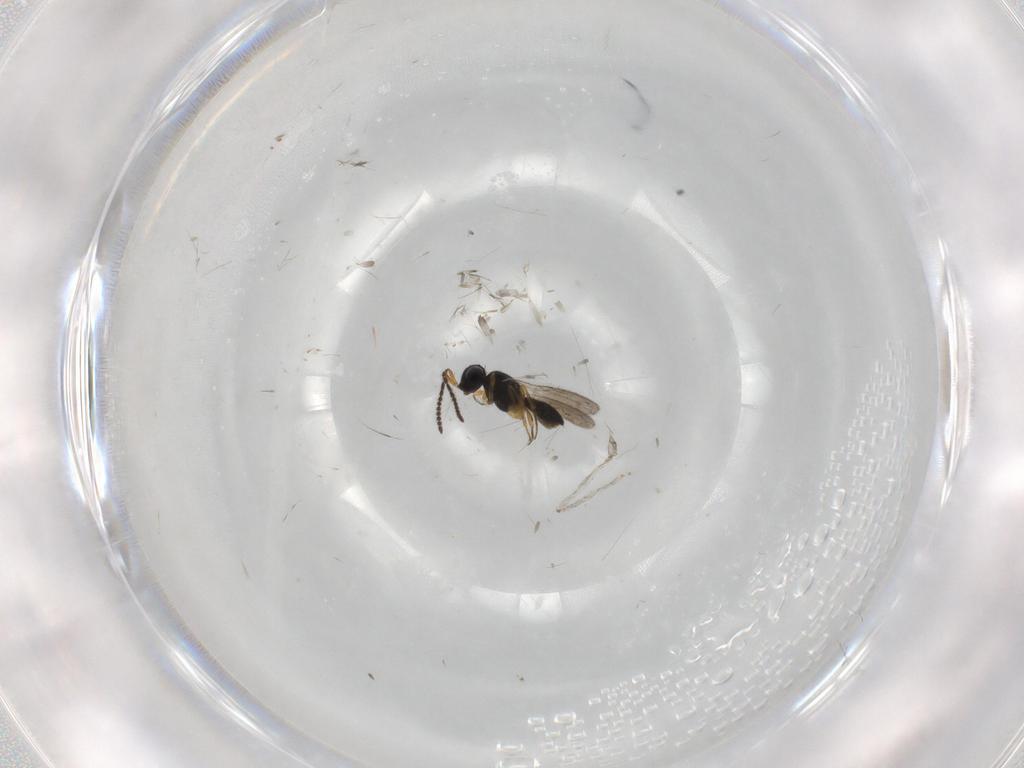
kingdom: Animalia
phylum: Arthropoda
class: Insecta
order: Hymenoptera
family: Scelionidae
